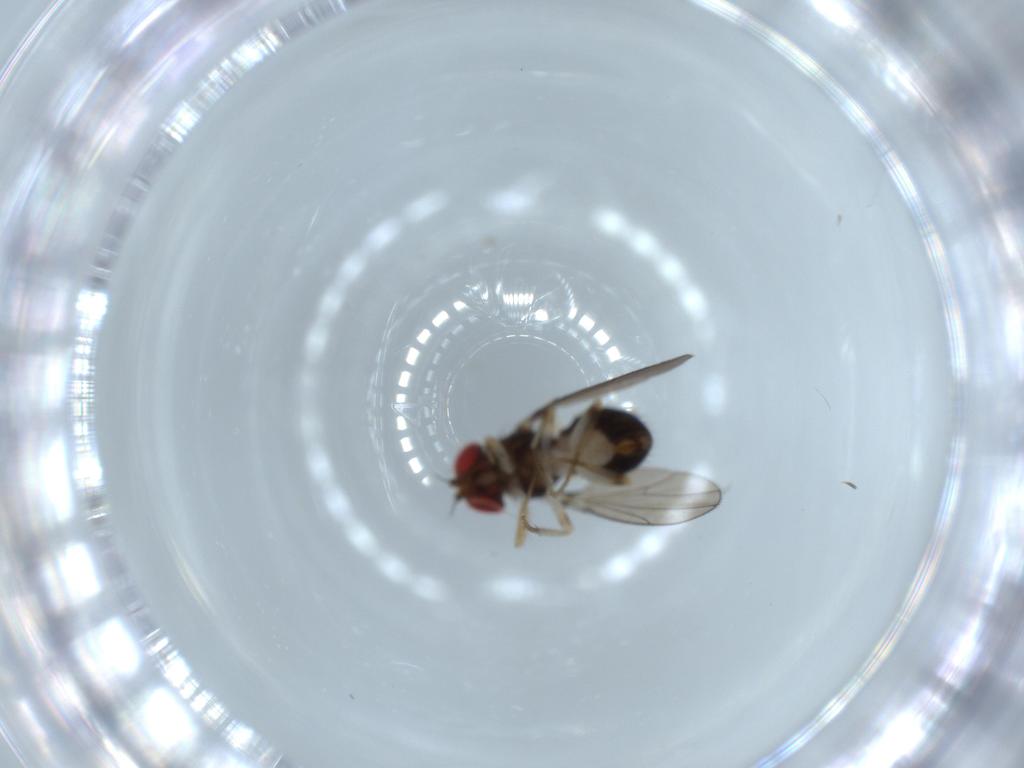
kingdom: Animalia
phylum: Arthropoda
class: Insecta
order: Diptera
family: Drosophilidae
